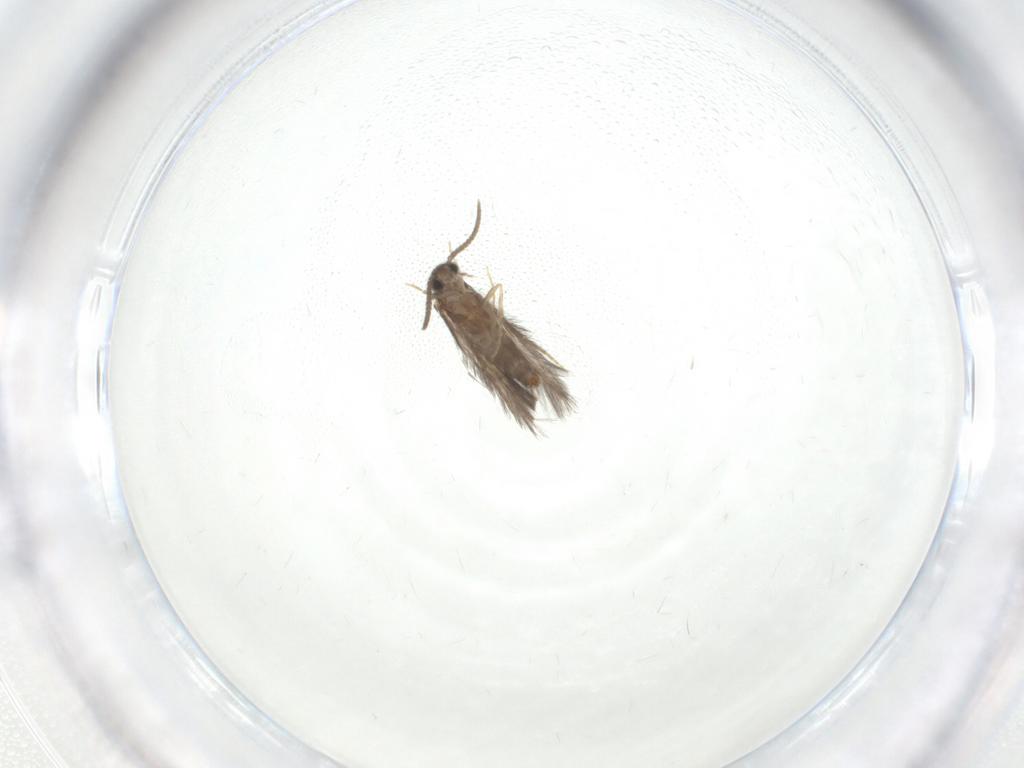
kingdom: Animalia
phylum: Arthropoda
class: Insecta
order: Trichoptera
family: Hydroptilidae
